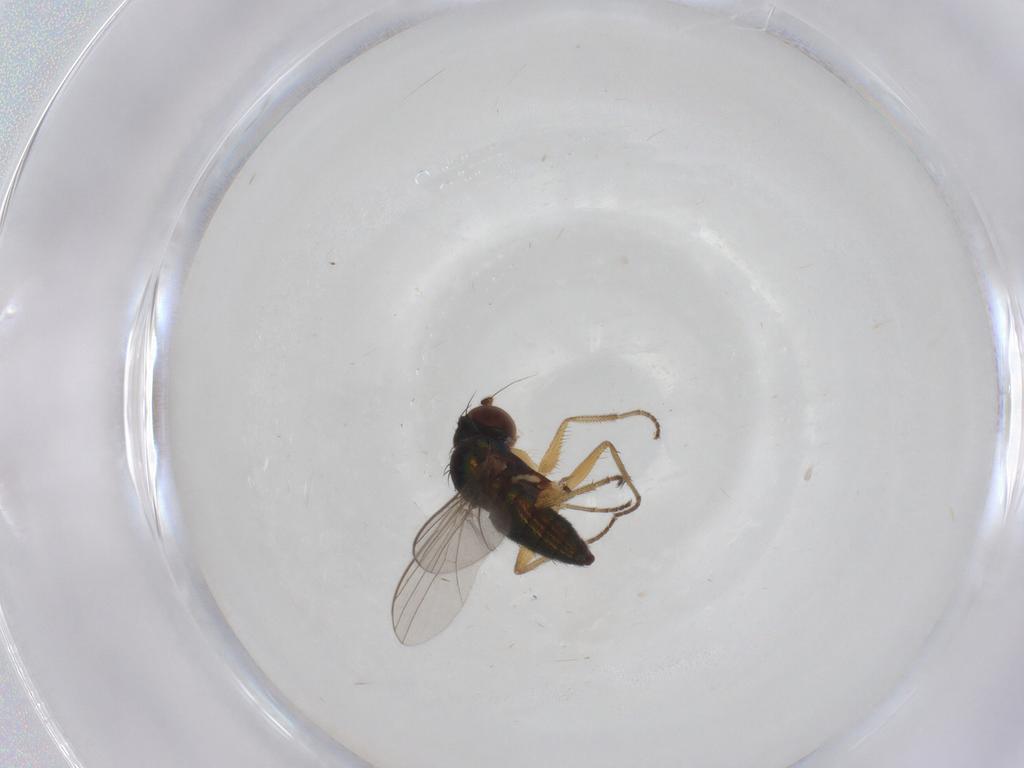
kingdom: Animalia
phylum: Arthropoda
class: Insecta
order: Diptera
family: Dolichopodidae
